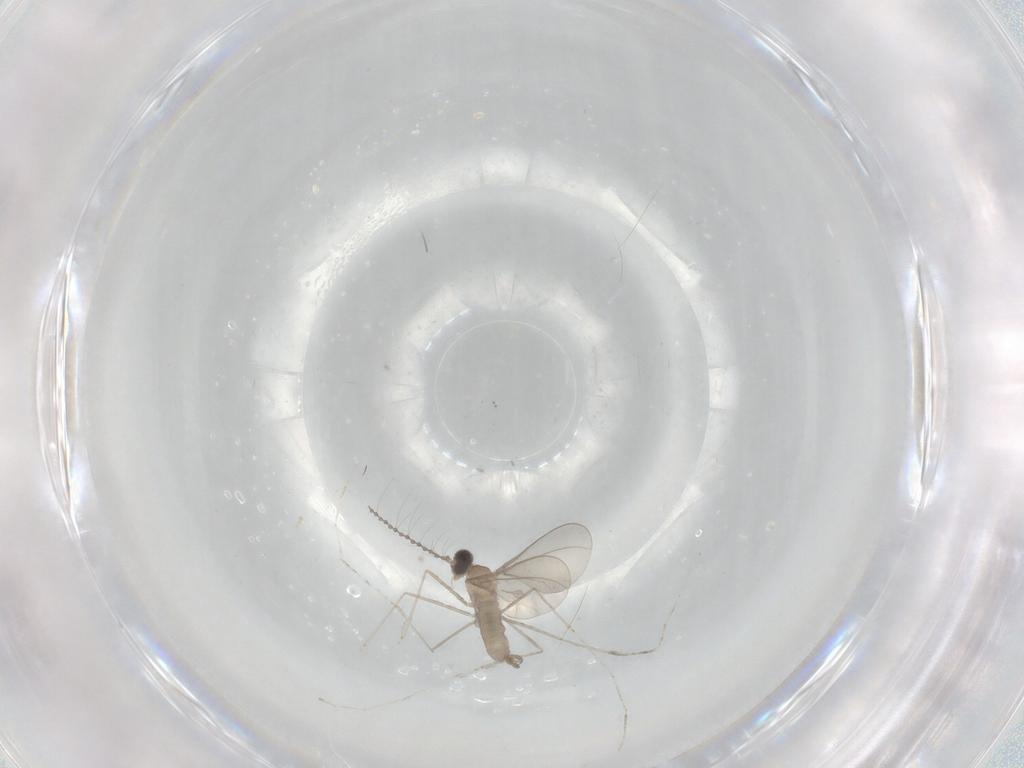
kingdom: Animalia
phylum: Arthropoda
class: Insecta
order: Diptera
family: Cecidomyiidae
